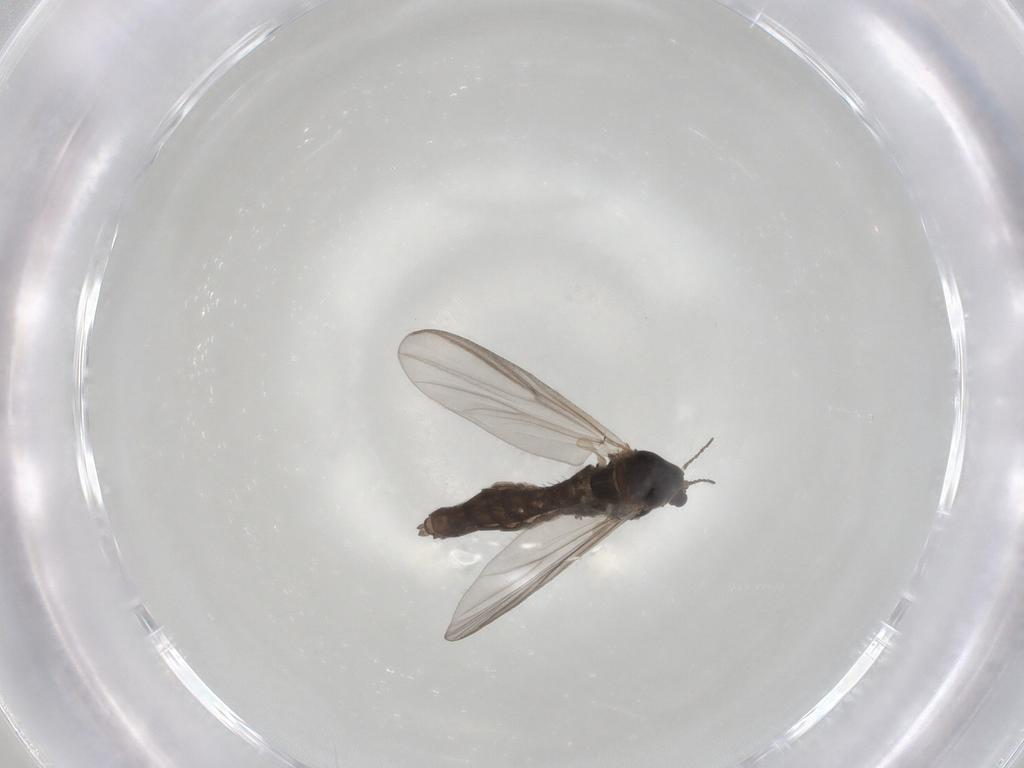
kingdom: Animalia
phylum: Arthropoda
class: Insecta
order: Diptera
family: Chironomidae
